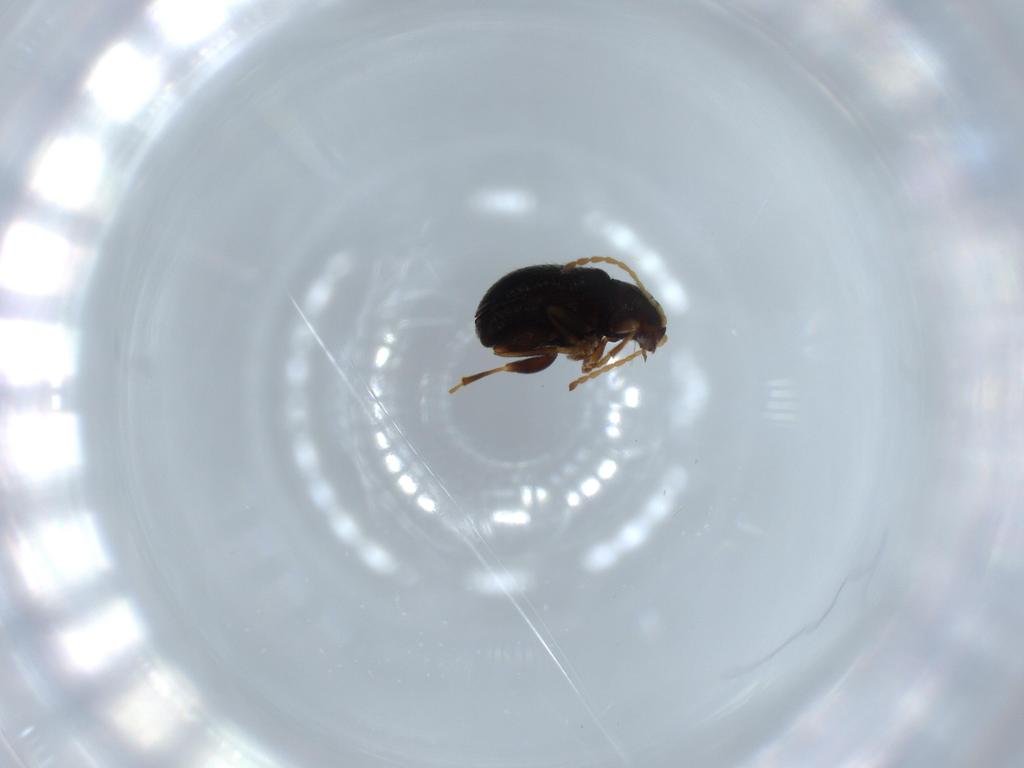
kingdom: Animalia
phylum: Arthropoda
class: Insecta
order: Coleoptera
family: Chrysomelidae
